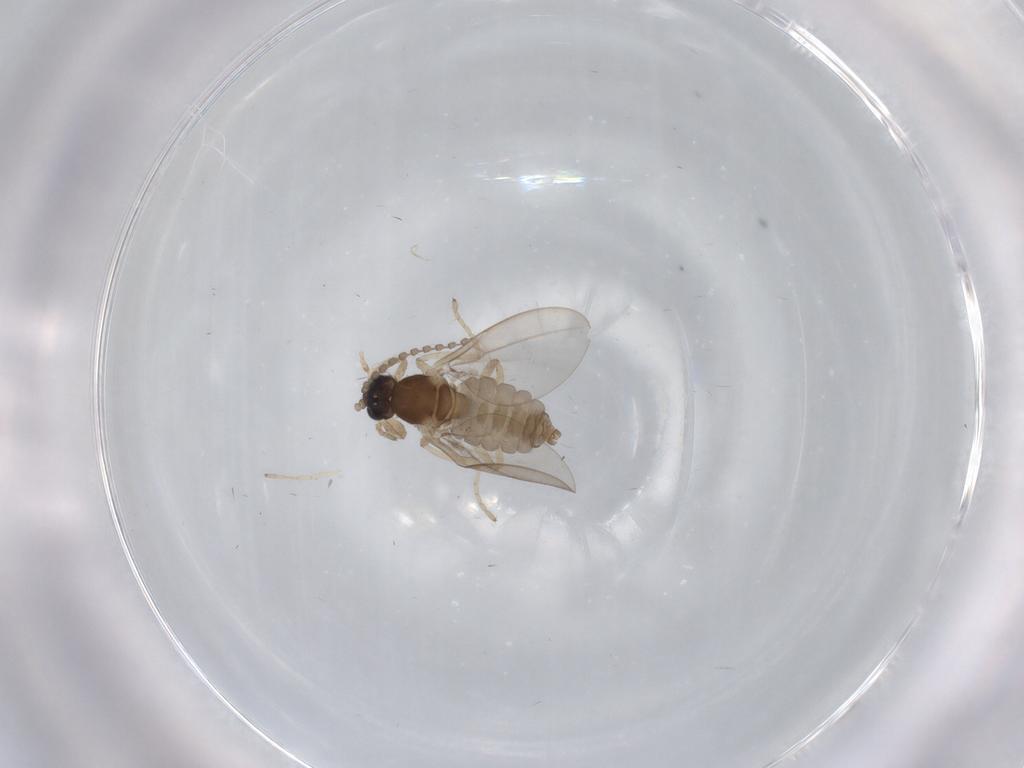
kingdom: Animalia
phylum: Arthropoda
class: Insecta
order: Diptera
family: Cecidomyiidae
